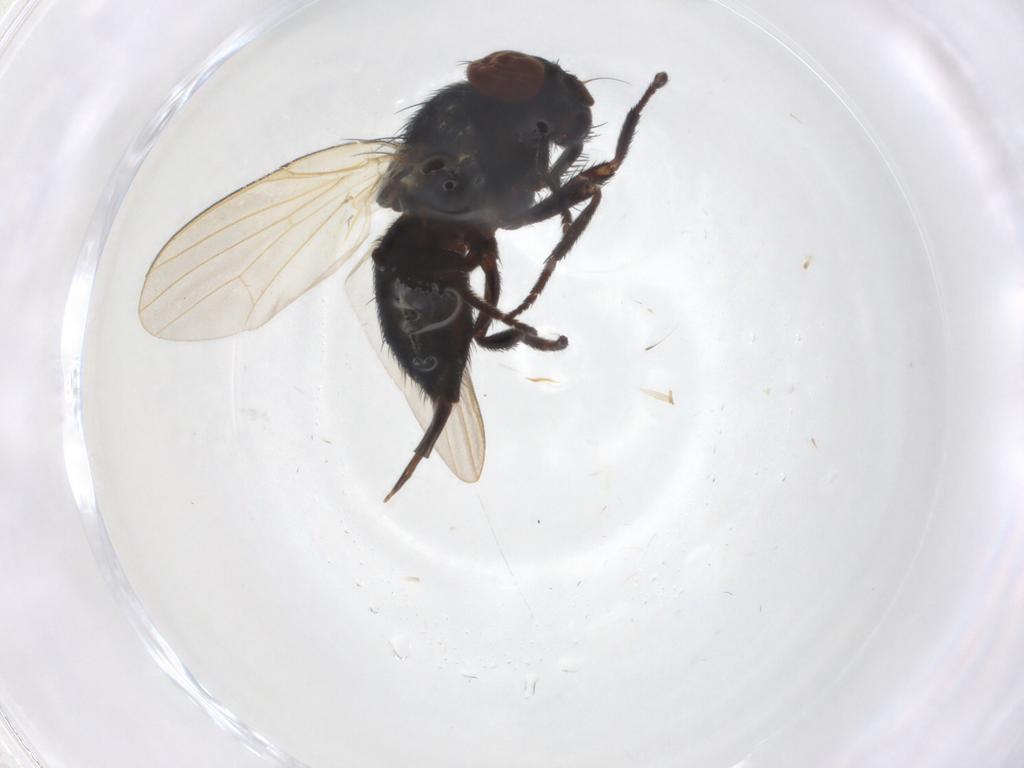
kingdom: Animalia
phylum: Arthropoda
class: Insecta
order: Diptera
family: Lonchaeidae
